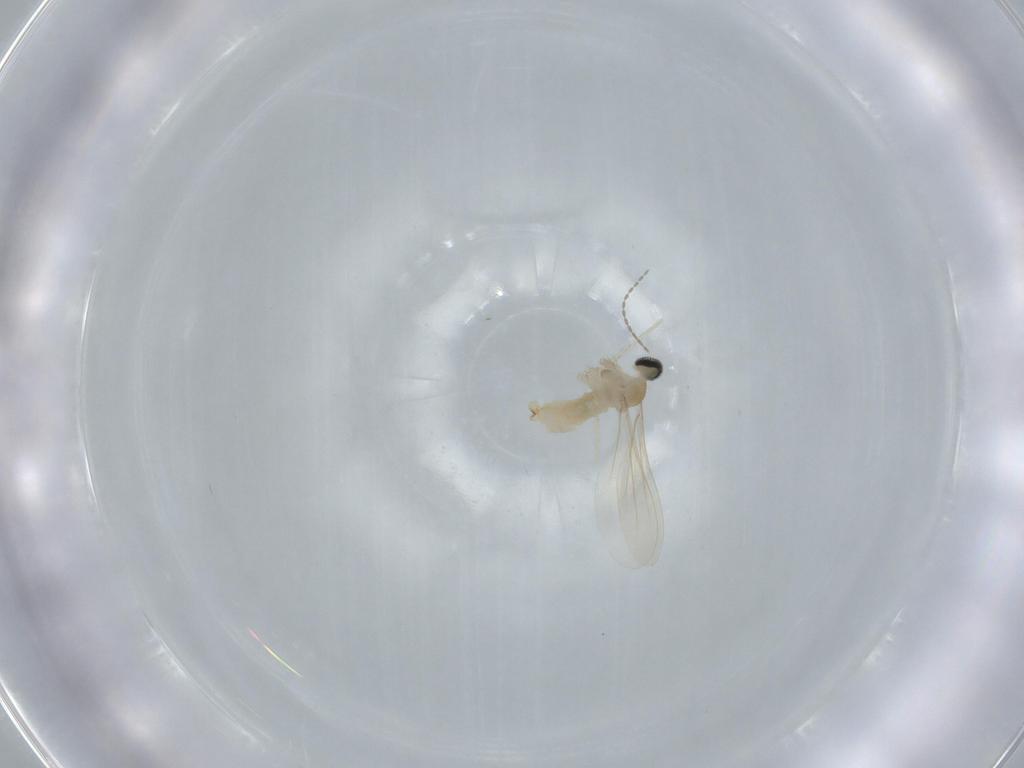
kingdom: Animalia
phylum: Arthropoda
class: Insecta
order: Diptera
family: Cecidomyiidae
